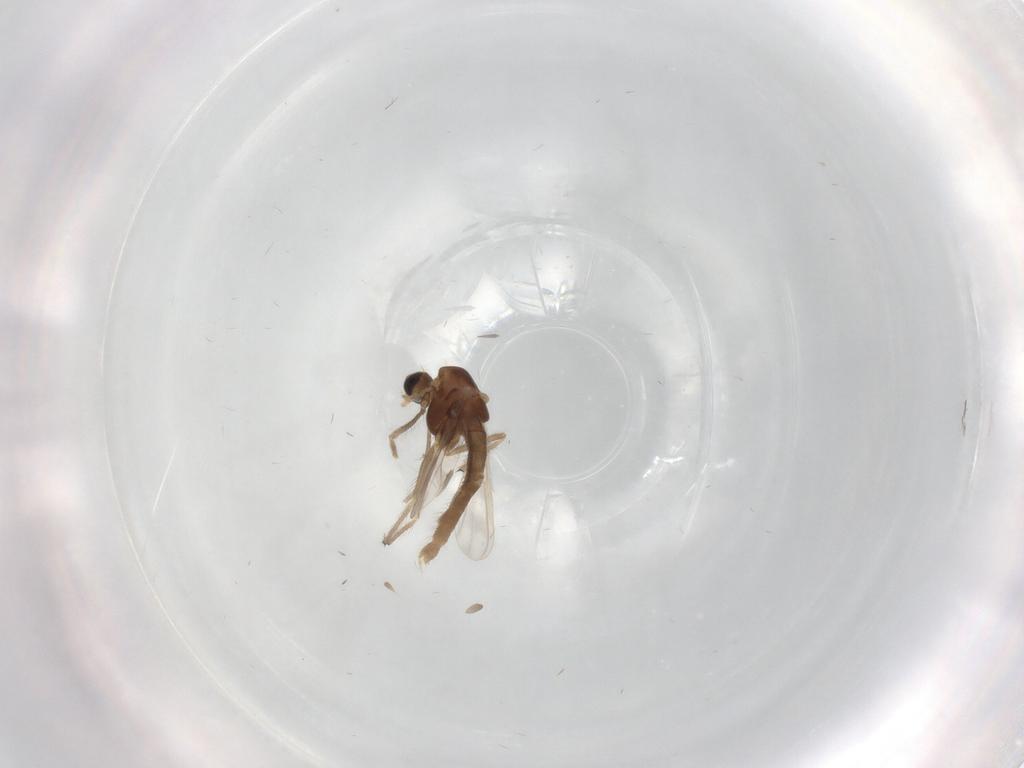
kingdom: Animalia
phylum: Arthropoda
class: Insecta
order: Diptera
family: Chironomidae
